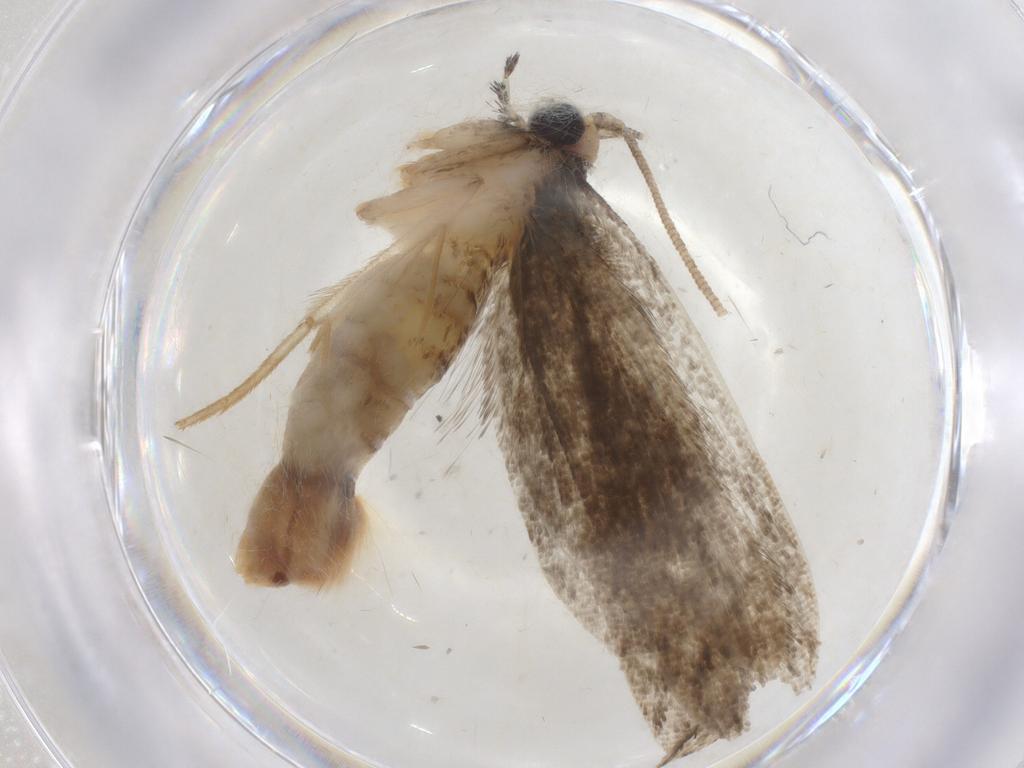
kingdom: Animalia
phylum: Arthropoda
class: Insecta
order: Lepidoptera
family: Tineidae
